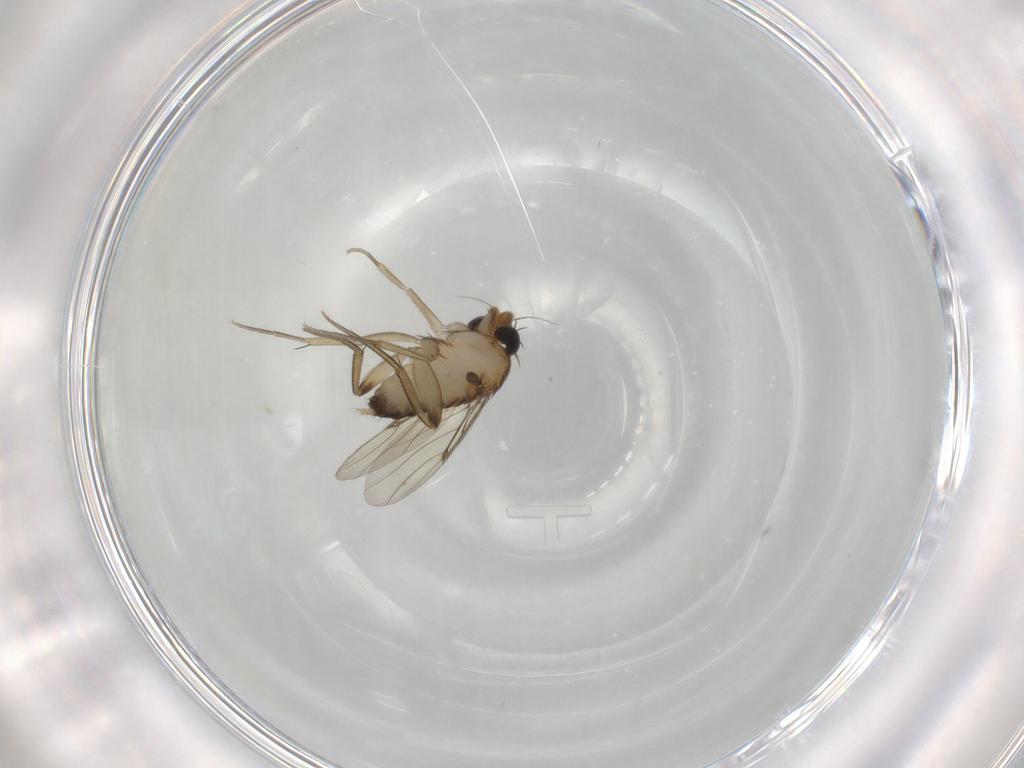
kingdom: Animalia
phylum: Arthropoda
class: Insecta
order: Diptera
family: Phoridae
